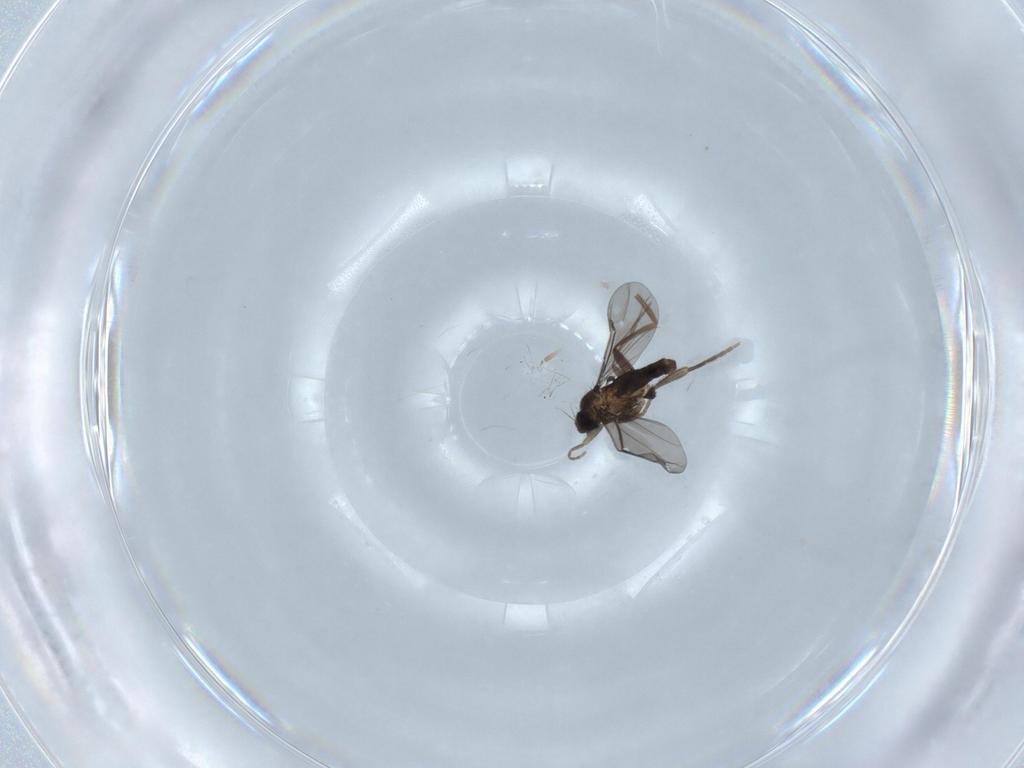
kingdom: Animalia
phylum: Arthropoda
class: Insecta
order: Diptera
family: Phoridae
